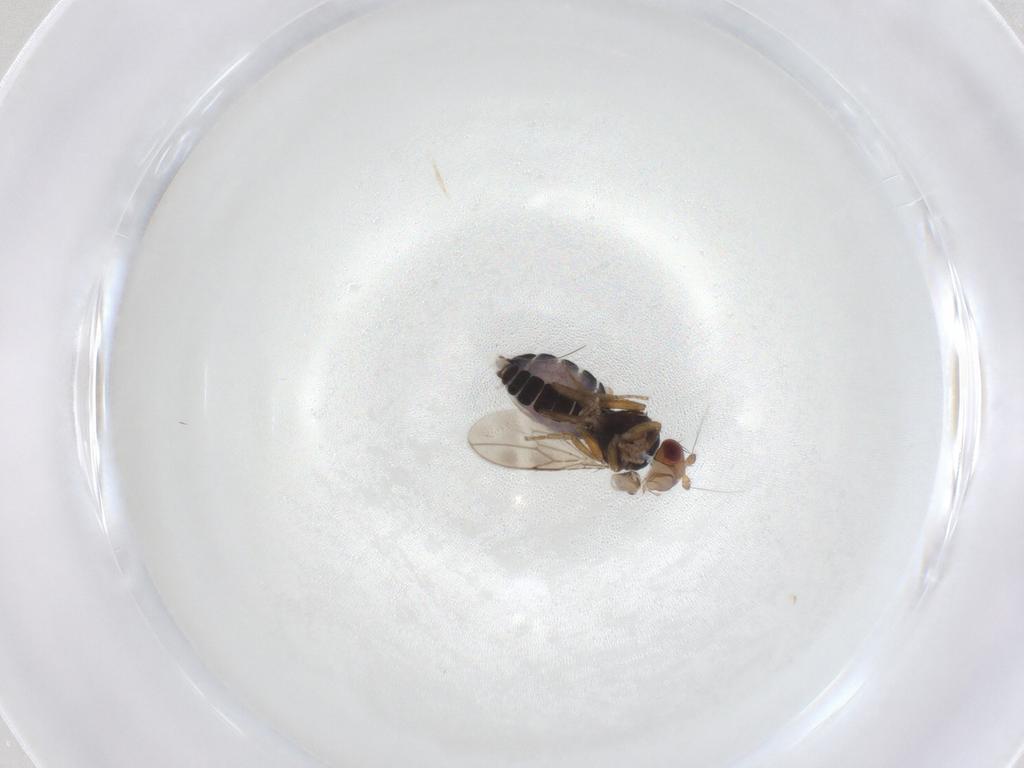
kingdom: Animalia
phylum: Arthropoda
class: Insecta
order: Diptera
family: Sphaeroceridae
